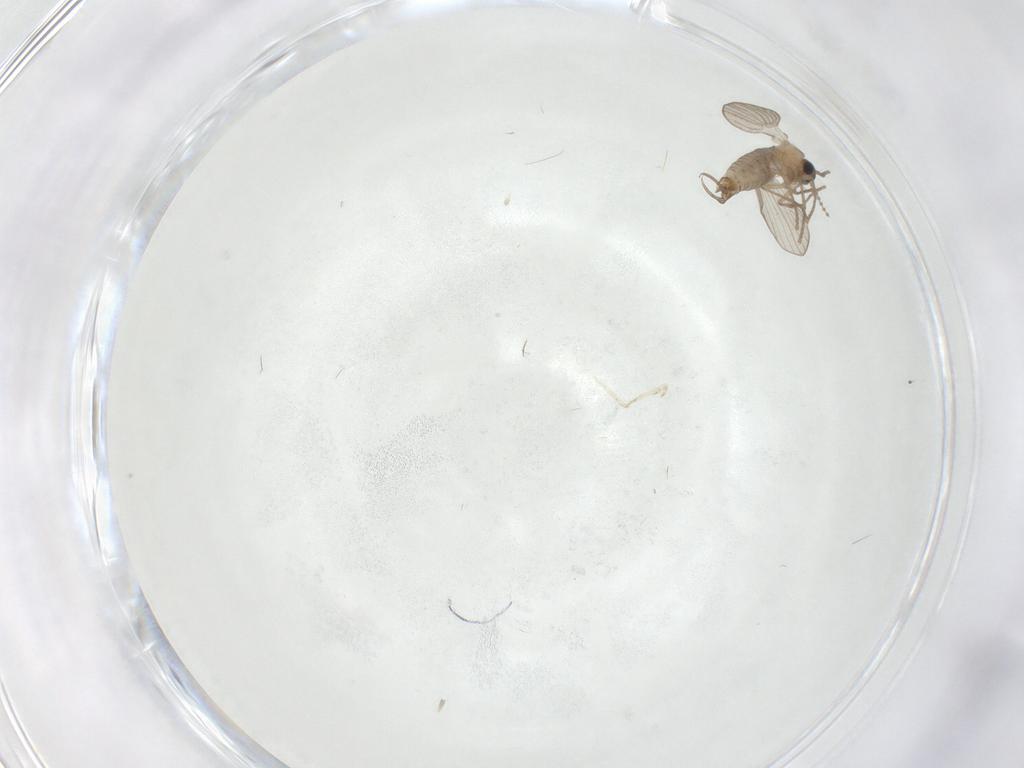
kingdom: Animalia
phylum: Arthropoda
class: Insecta
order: Diptera
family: Psychodidae
